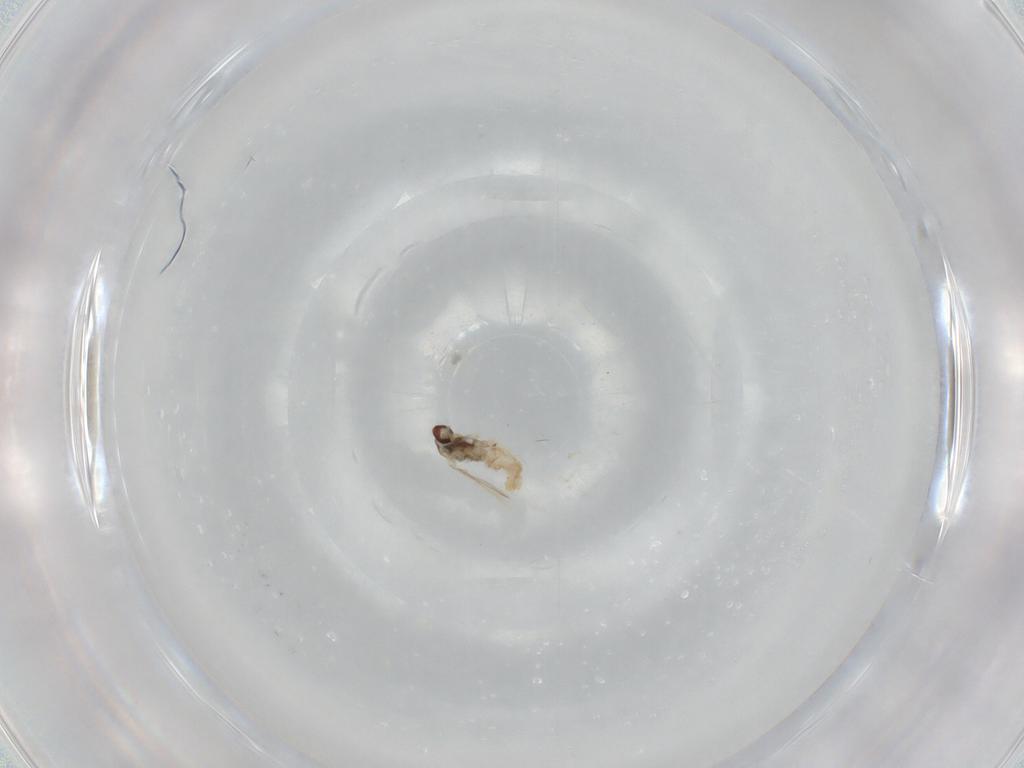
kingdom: Animalia
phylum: Arthropoda
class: Insecta
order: Diptera
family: Cecidomyiidae
